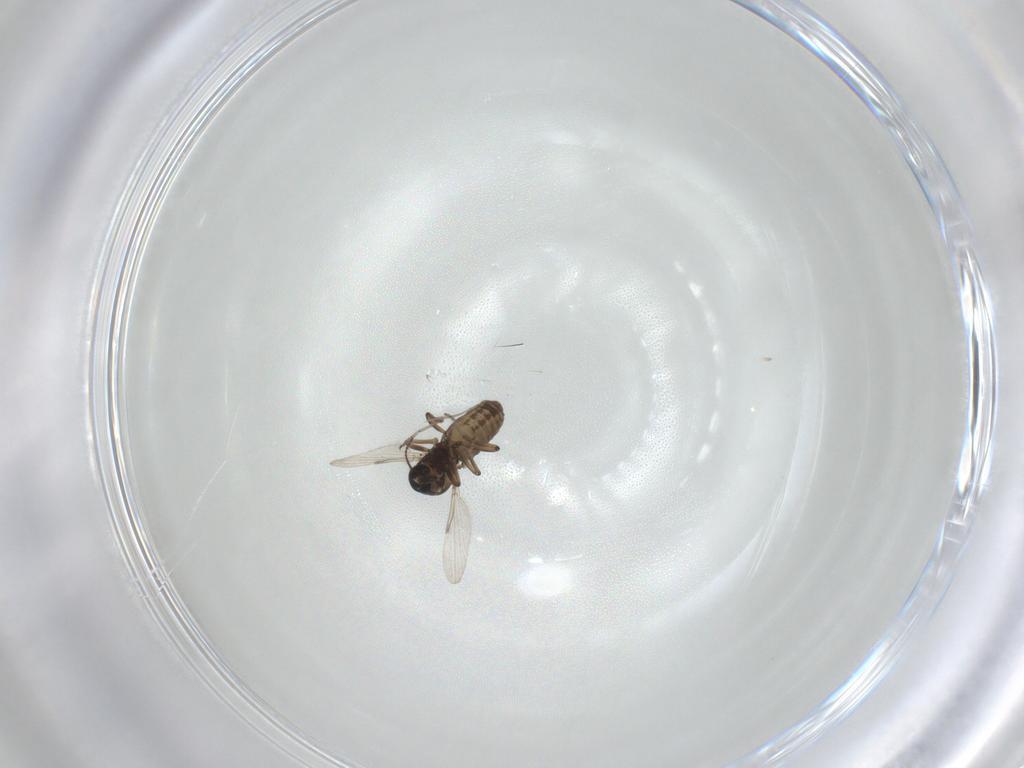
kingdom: Animalia
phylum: Arthropoda
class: Insecta
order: Diptera
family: Ceratopogonidae
